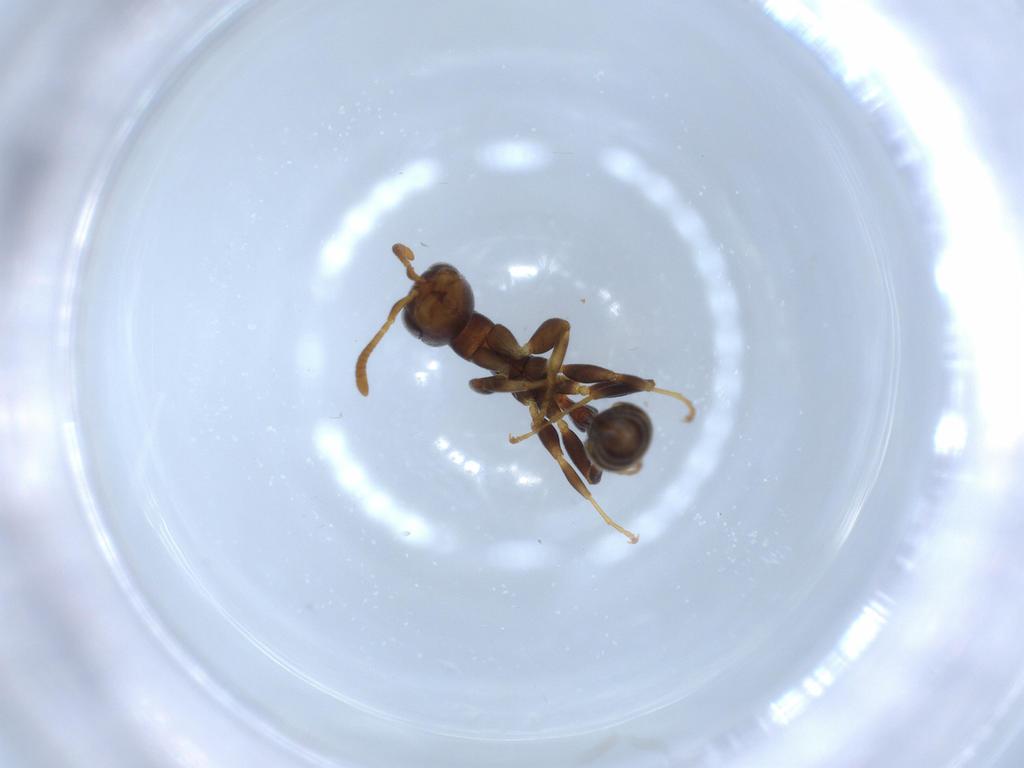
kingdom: Animalia
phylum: Arthropoda
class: Insecta
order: Hymenoptera
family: Formicidae
